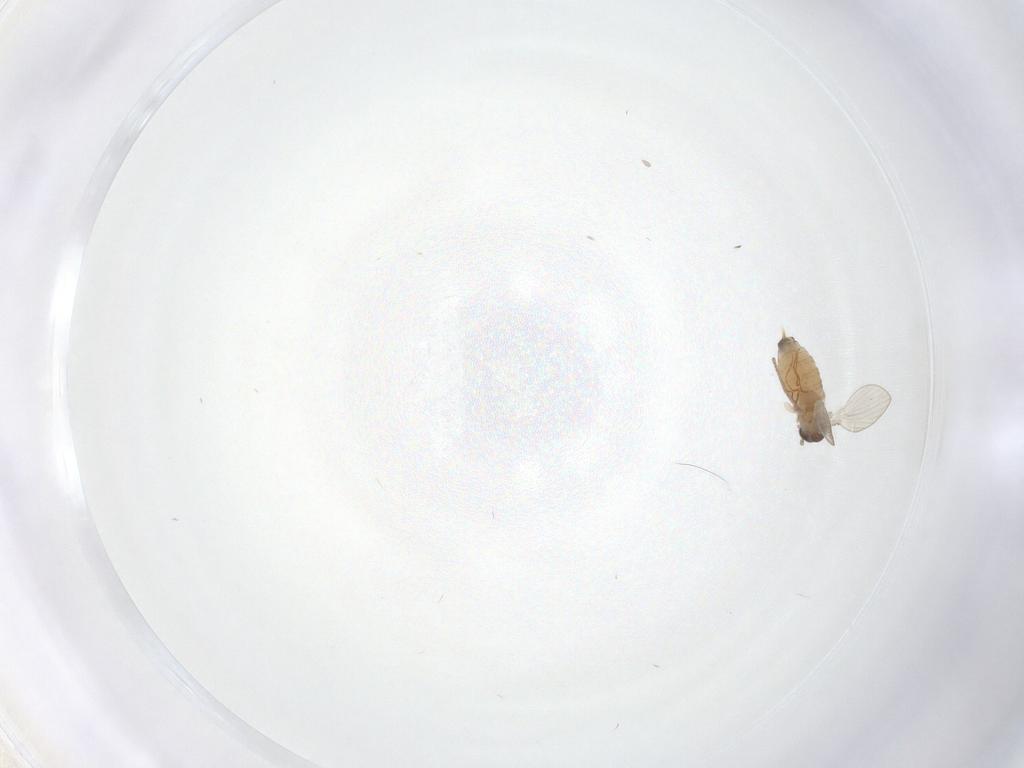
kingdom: Animalia
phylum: Arthropoda
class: Insecta
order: Diptera
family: Psychodidae
